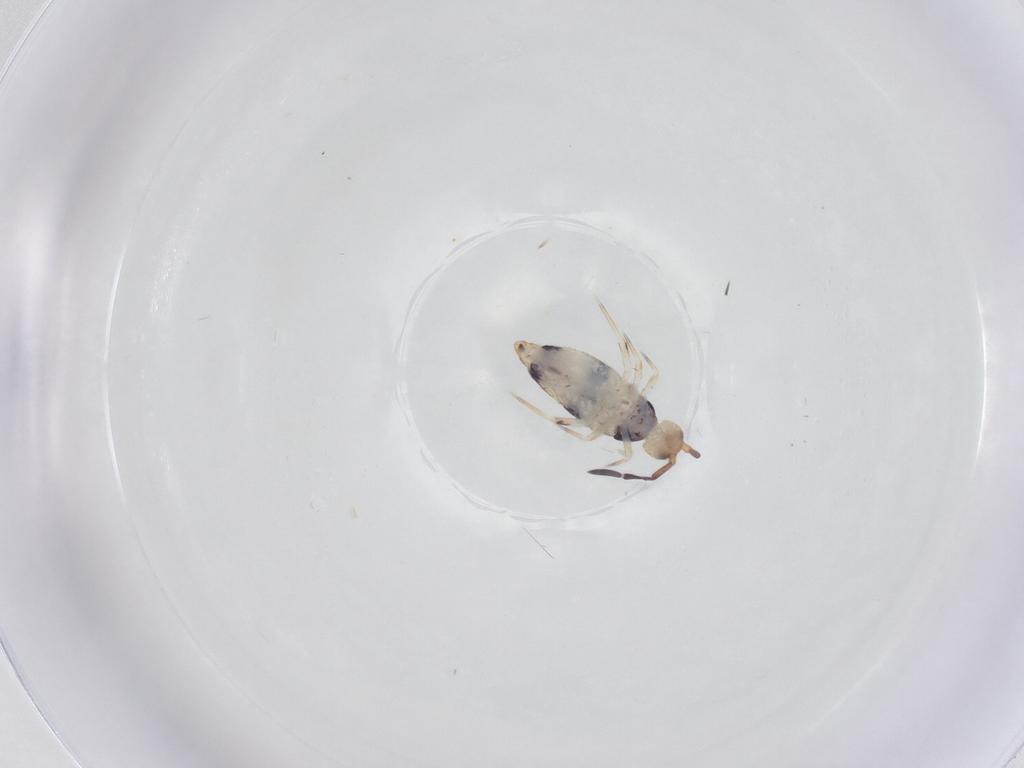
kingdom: Animalia
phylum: Arthropoda
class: Collembola
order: Entomobryomorpha
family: Entomobryidae
